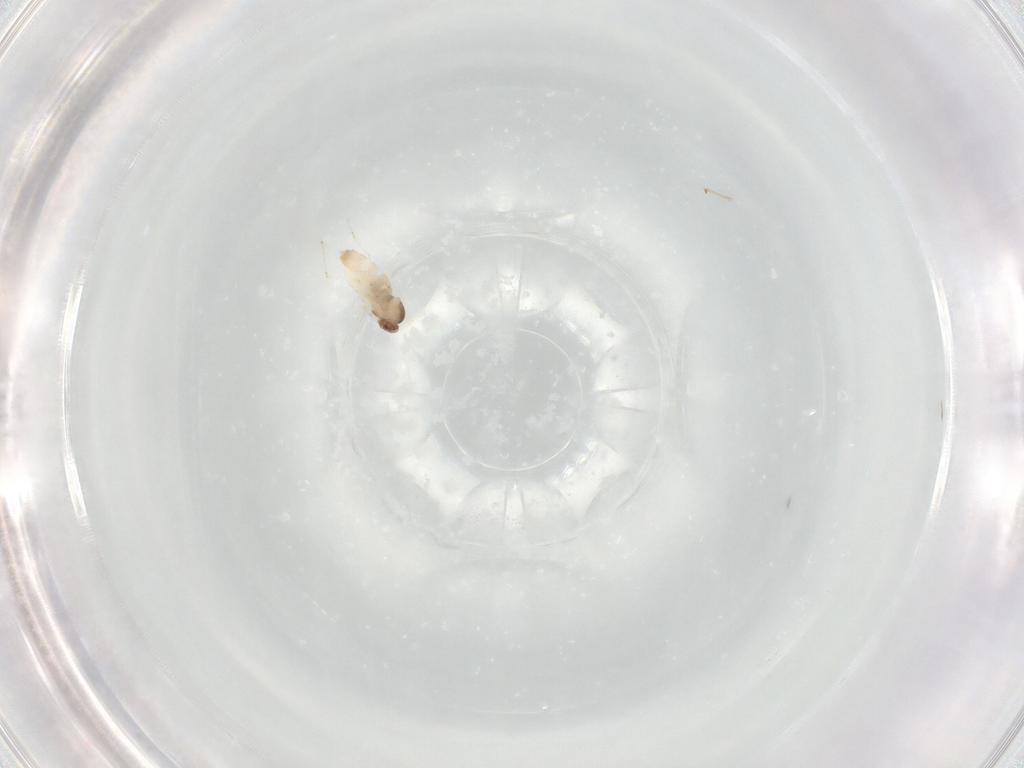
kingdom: Animalia
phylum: Arthropoda
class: Insecta
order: Diptera
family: Cecidomyiidae
